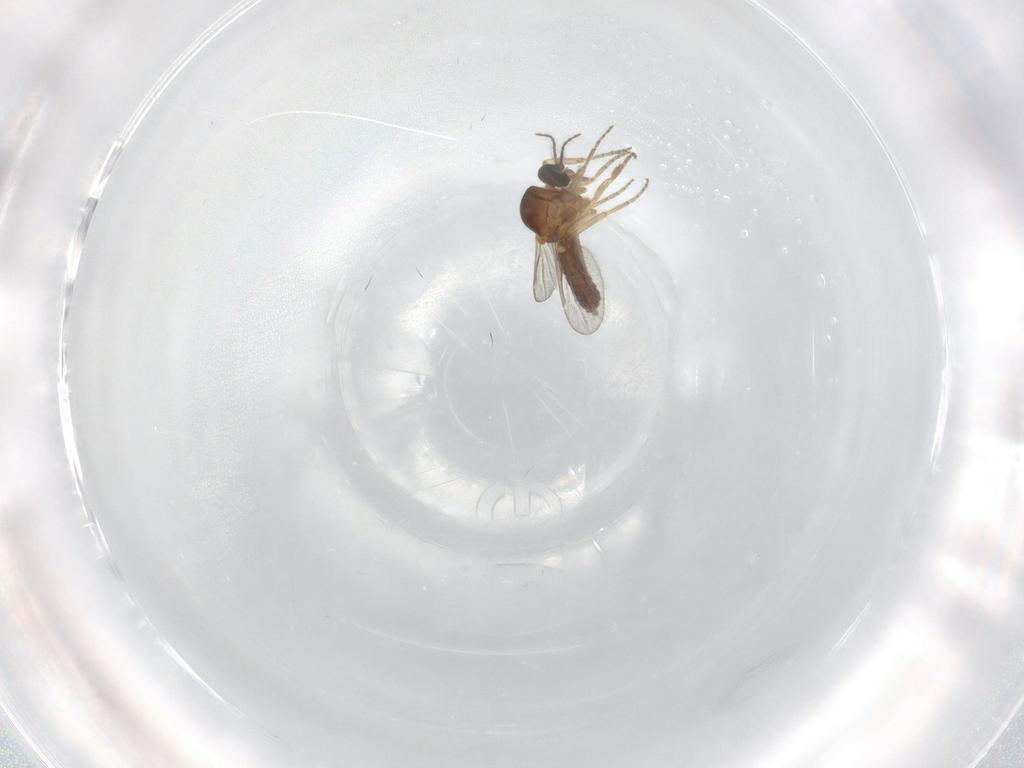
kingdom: Animalia
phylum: Arthropoda
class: Insecta
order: Diptera
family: Ceratopogonidae
